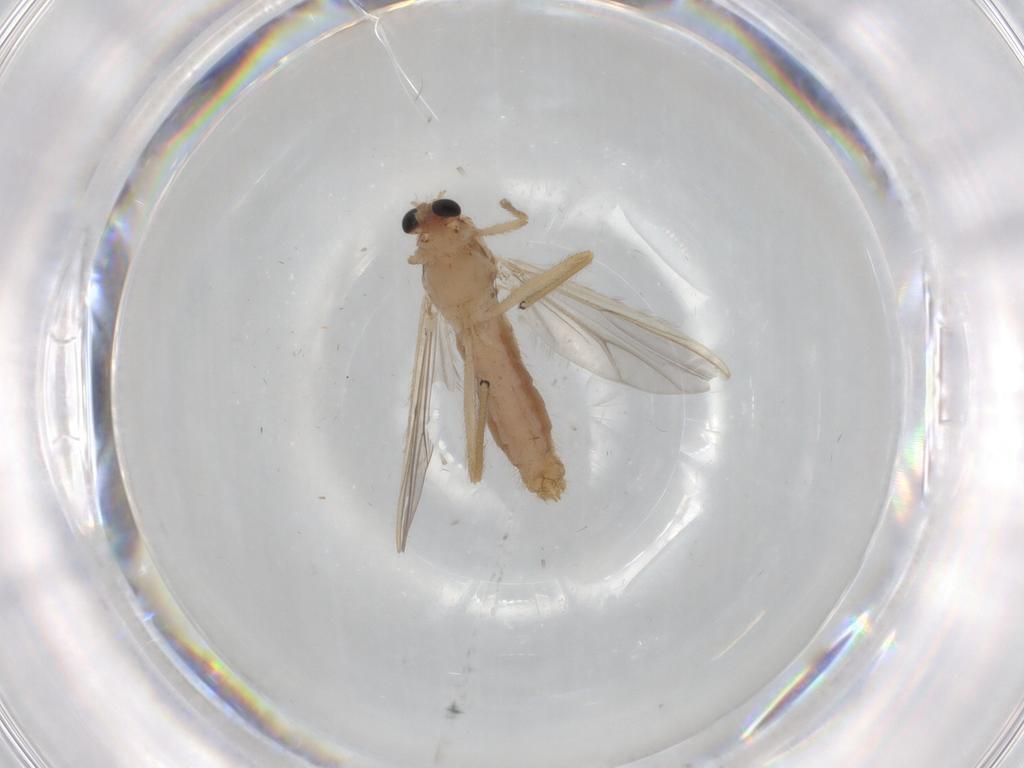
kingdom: Animalia
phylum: Arthropoda
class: Insecta
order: Diptera
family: Chironomidae
